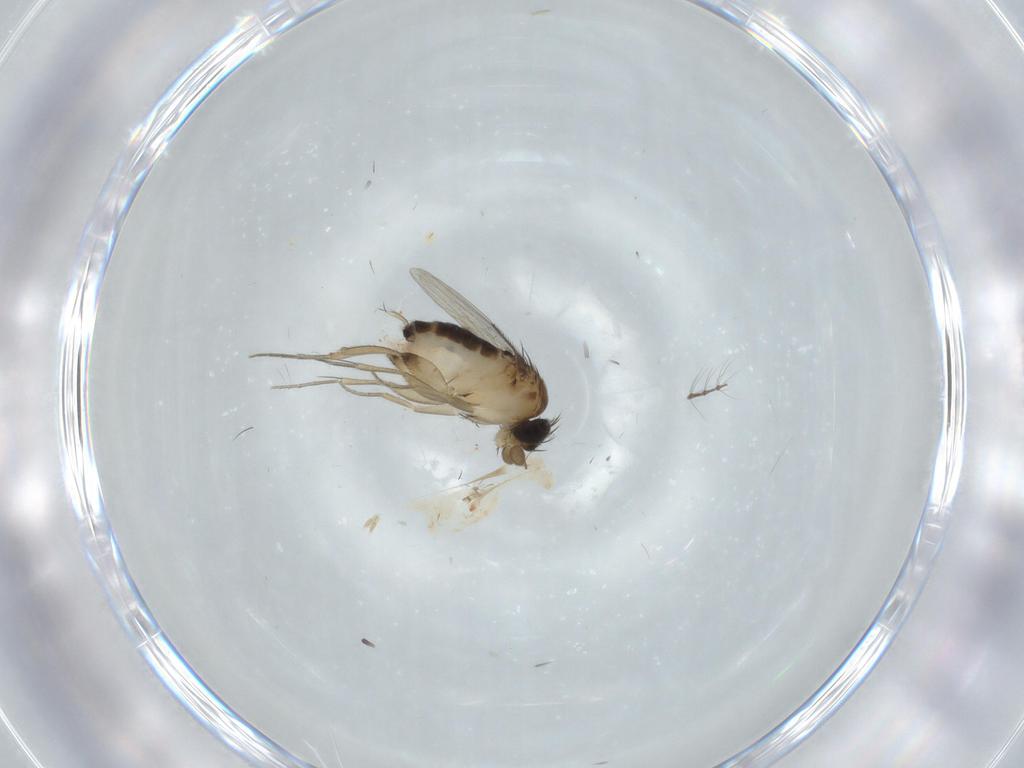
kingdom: Animalia
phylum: Arthropoda
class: Insecta
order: Diptera
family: Phoridae
